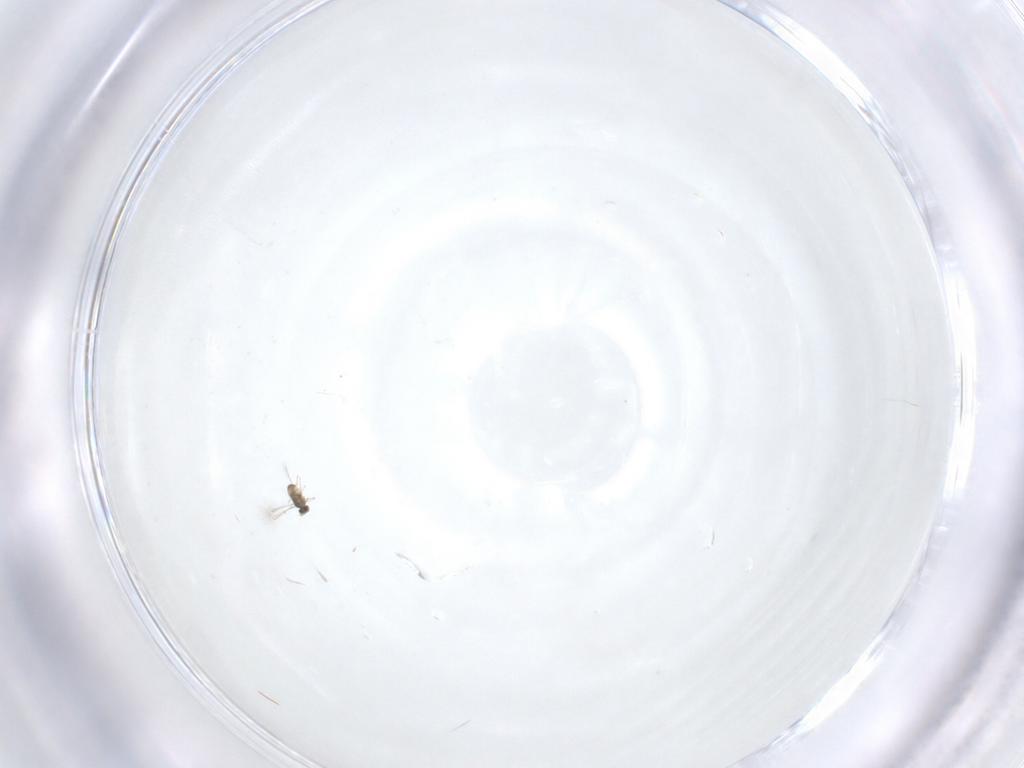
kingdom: Animalia
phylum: Arthropoda
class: Insecta
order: Hymenoptera
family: Eulophidae
